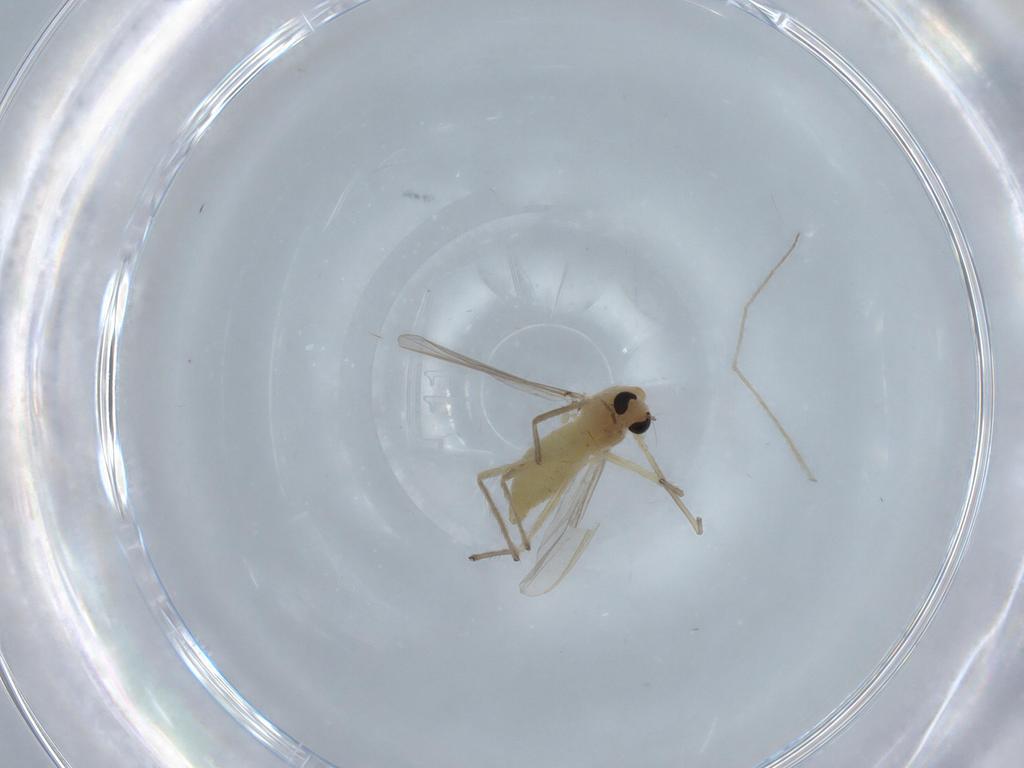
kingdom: Animalia
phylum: Arthropoda
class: Insecta
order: Diptera
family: Chironomidae
